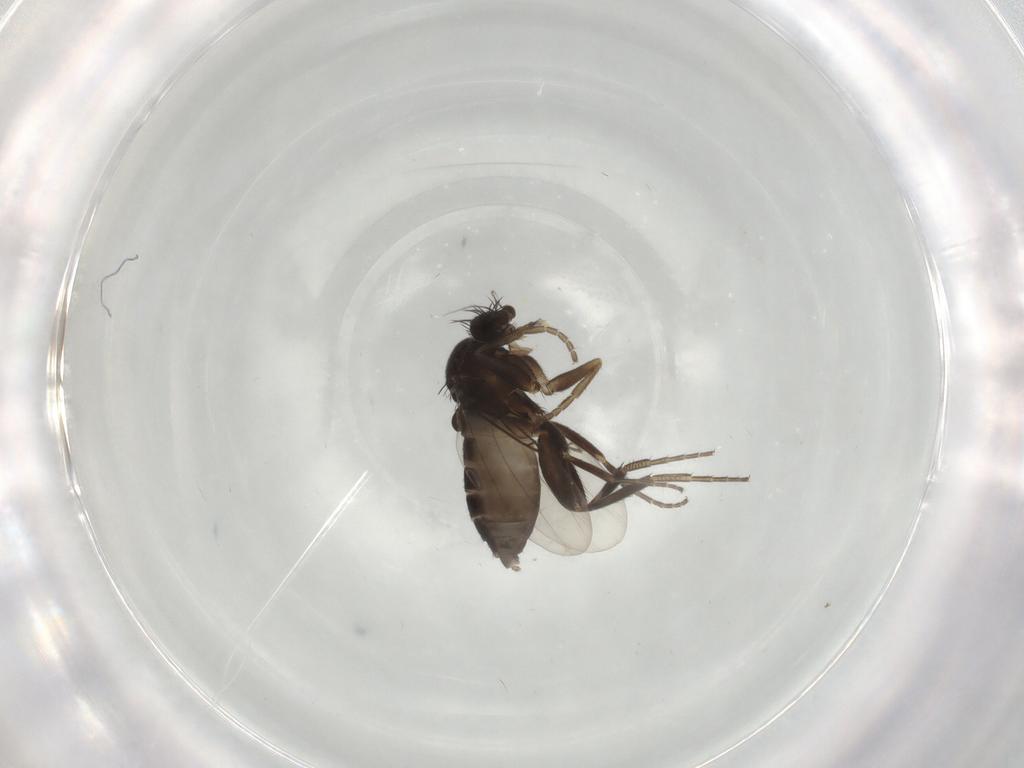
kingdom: Animalia
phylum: Arthropoda
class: Insecta
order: Diptera
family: Phoridae
